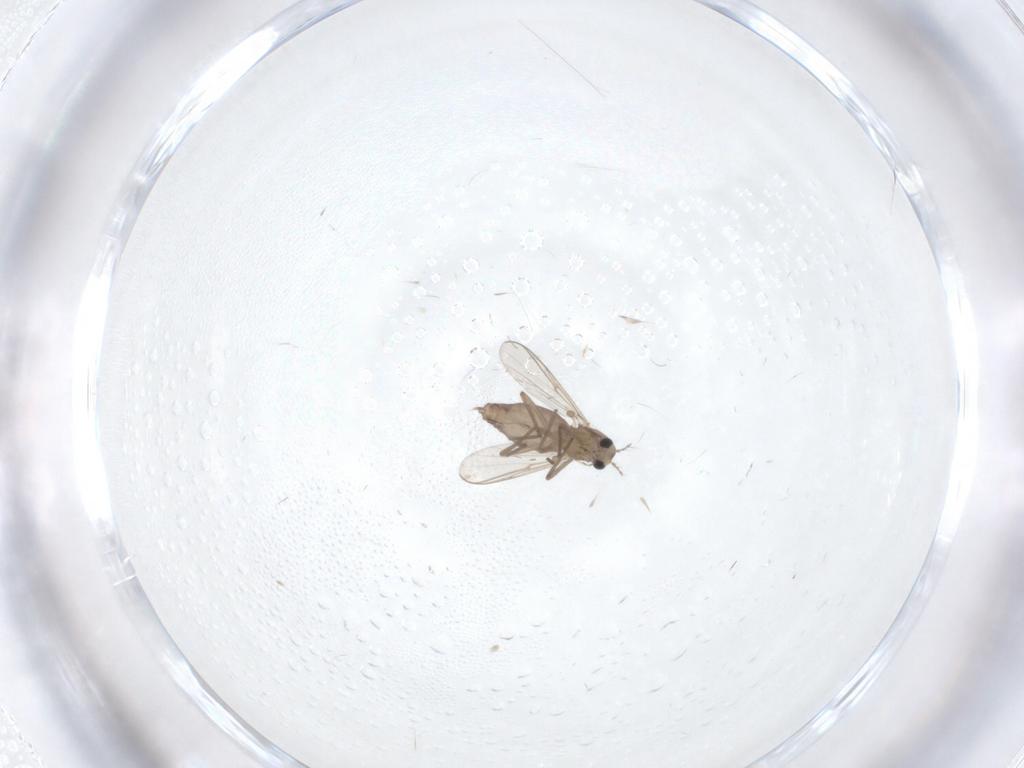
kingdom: Animalia
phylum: Arthropoda
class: Insecta
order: Diptera
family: Chironomidae
